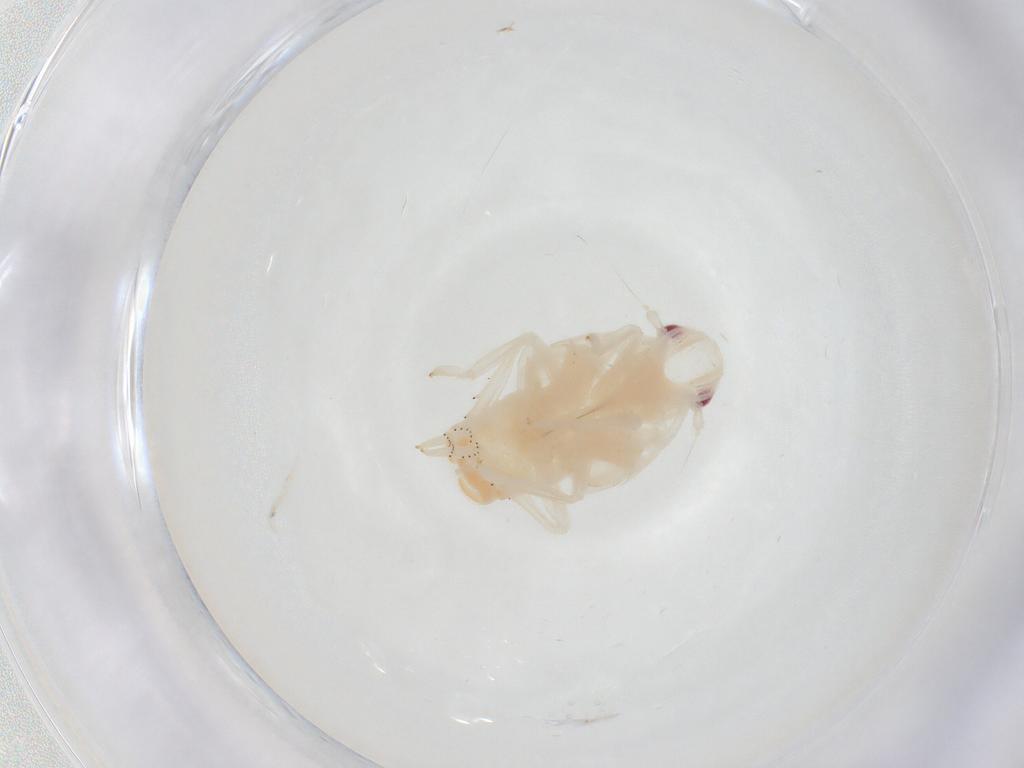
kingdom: Animalia
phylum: Arthropoda
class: Insecta
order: Hemiptera
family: Flatidae
